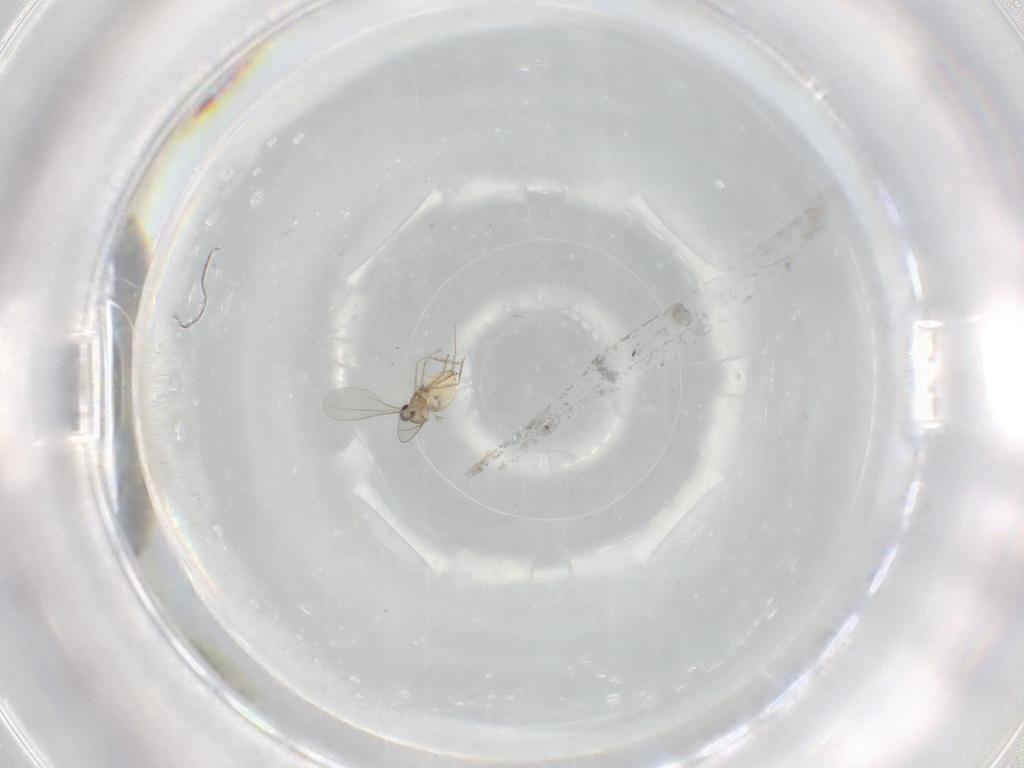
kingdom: Animalia
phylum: Arthropoda
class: Insecta
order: Diptera
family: Cecidomyiidae
